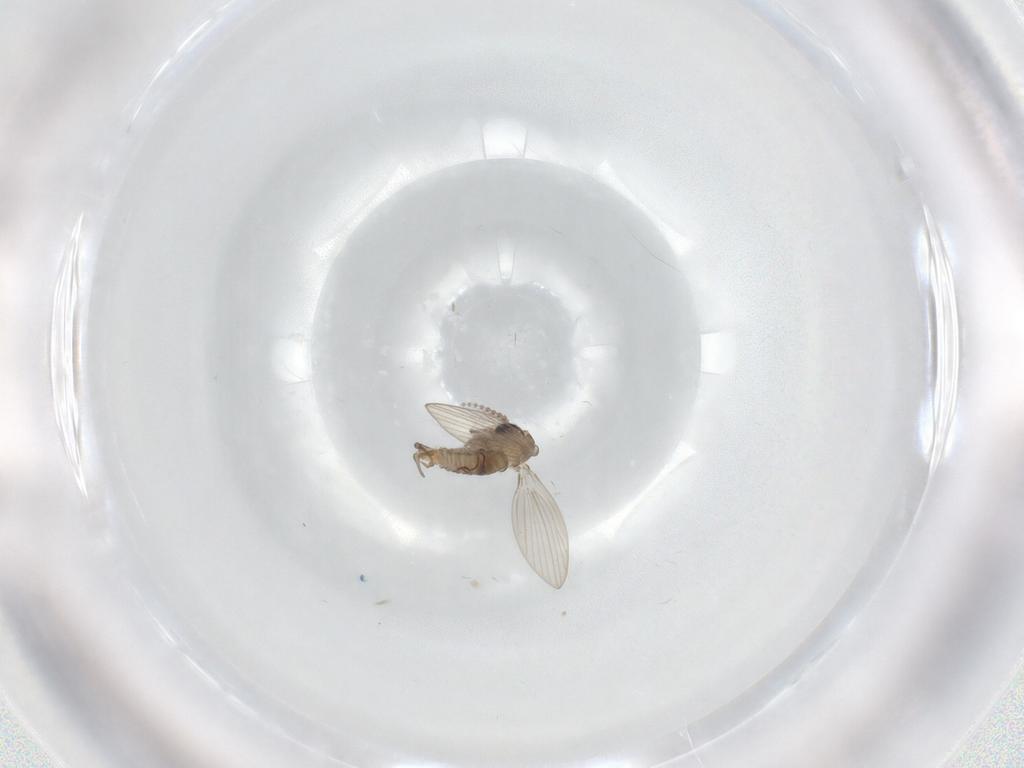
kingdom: Animalia
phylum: Arthropoda
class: Insecta
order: Diptera
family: Psychodidae
